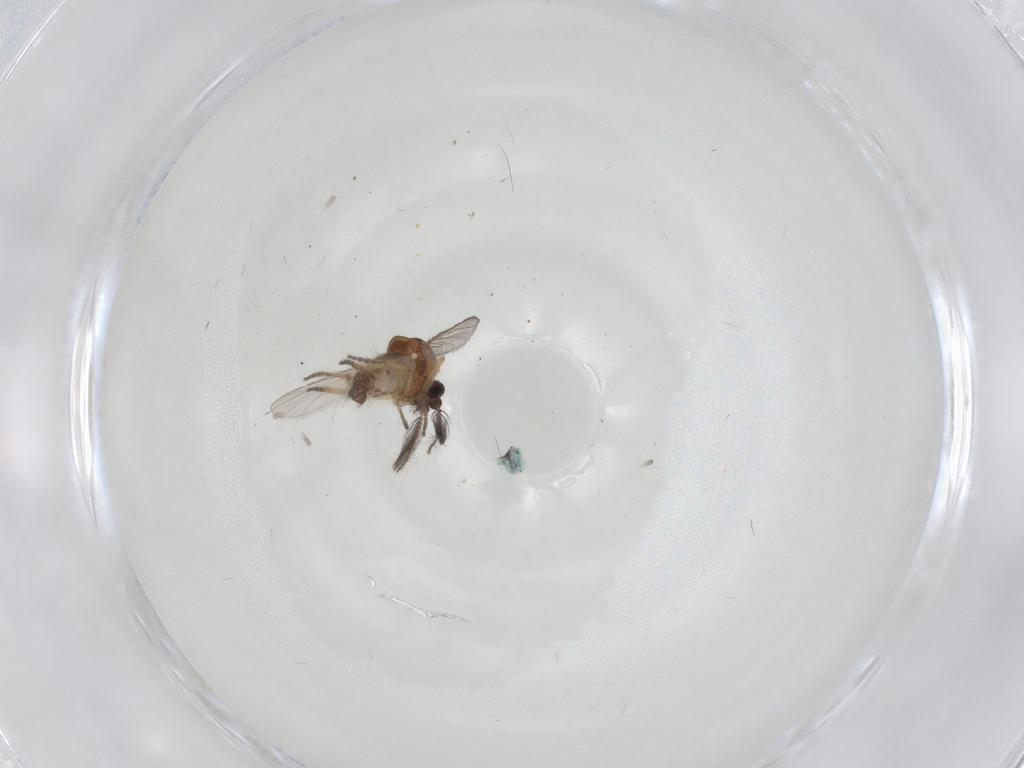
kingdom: Animalia
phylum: Arthropoda
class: Insecta
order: Diptera
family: Ceratopogonidae
